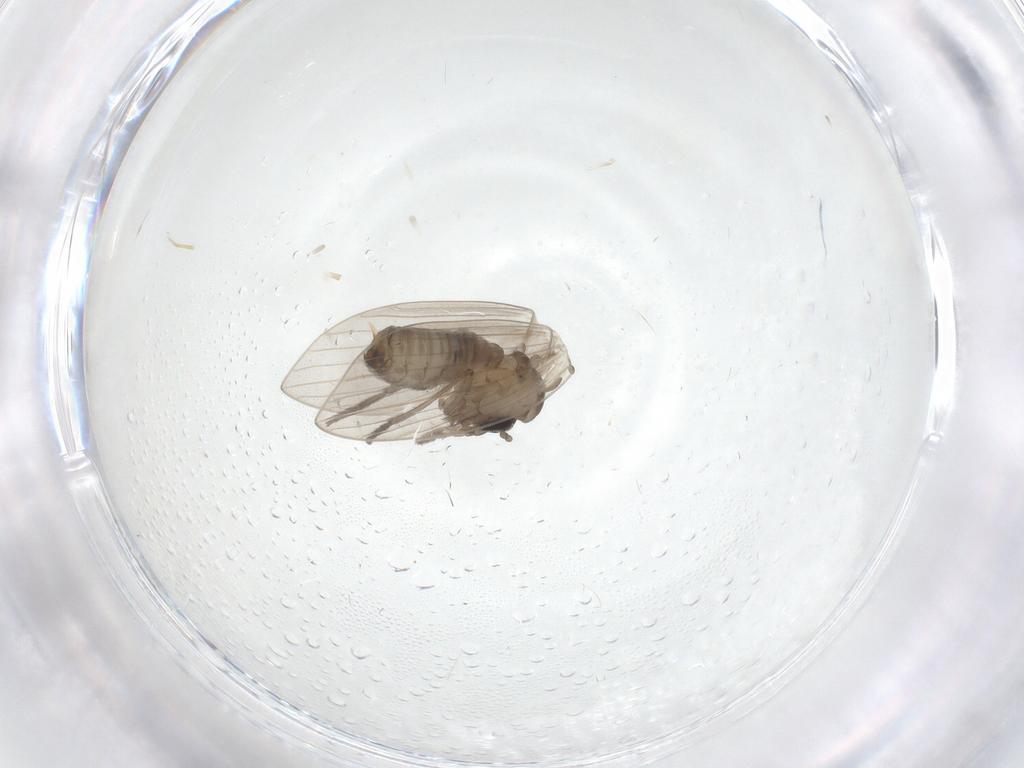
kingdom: Animalia
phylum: Arthropoda
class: Insecta
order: Diptera
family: Psychodidae
